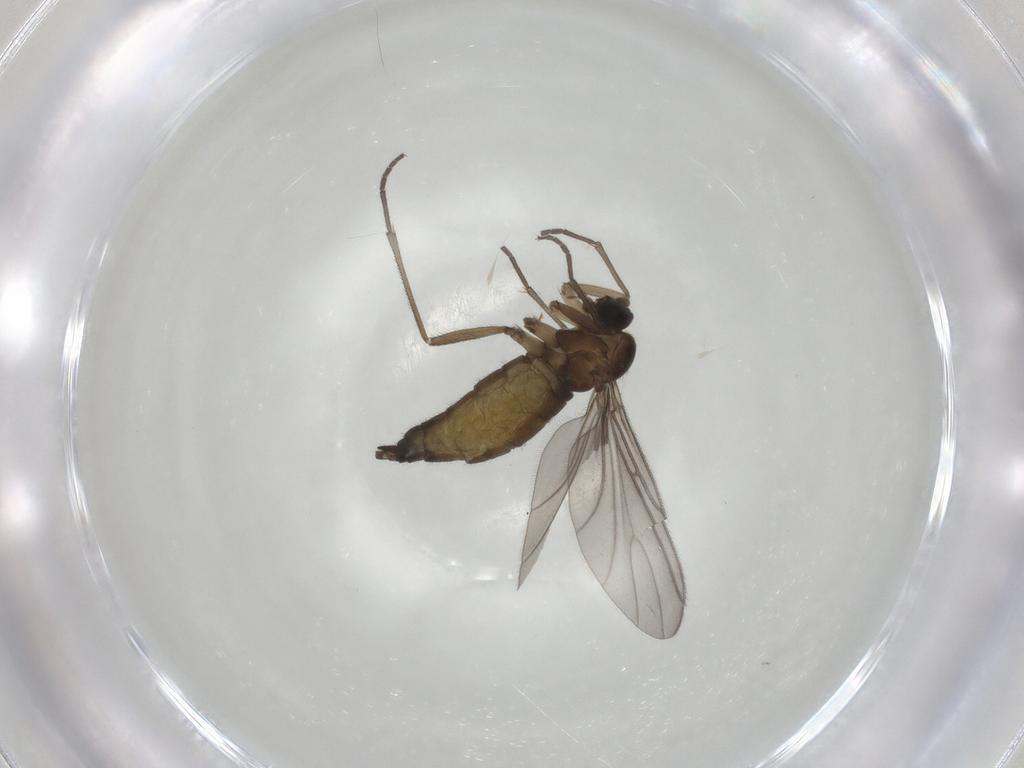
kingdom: Animalia
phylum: Arthropoda
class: Insecta
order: Diptera
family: Sciaridae
